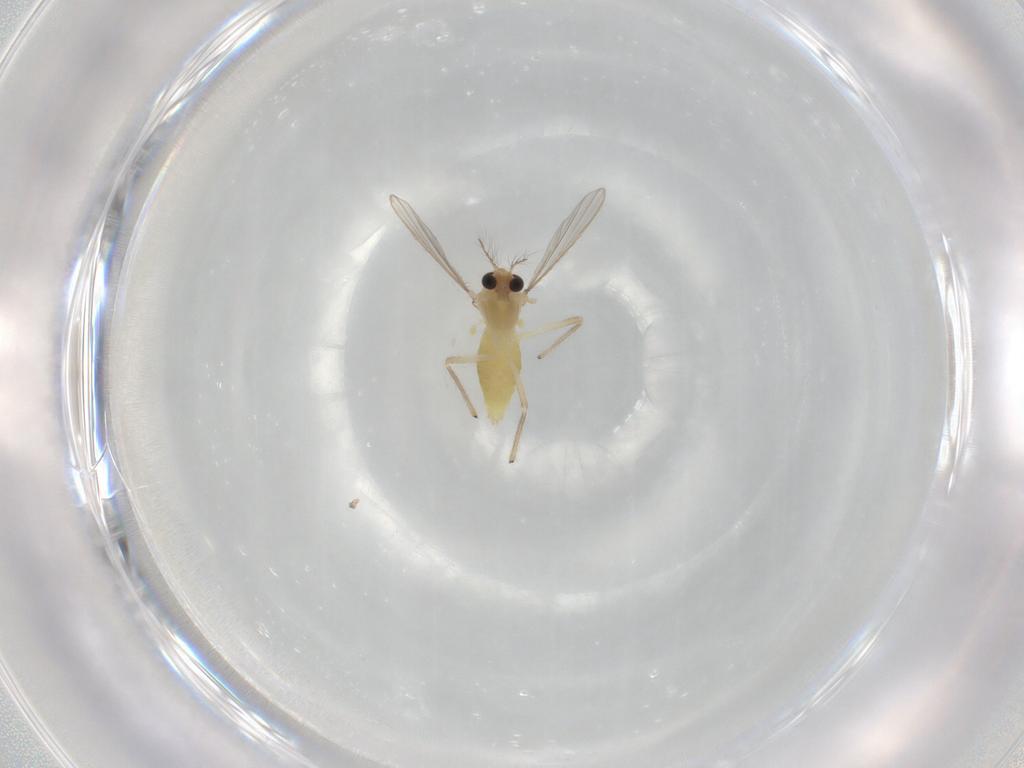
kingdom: Animalia
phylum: Arthropoda
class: Insecta
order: Diptera
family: Chironomidae
